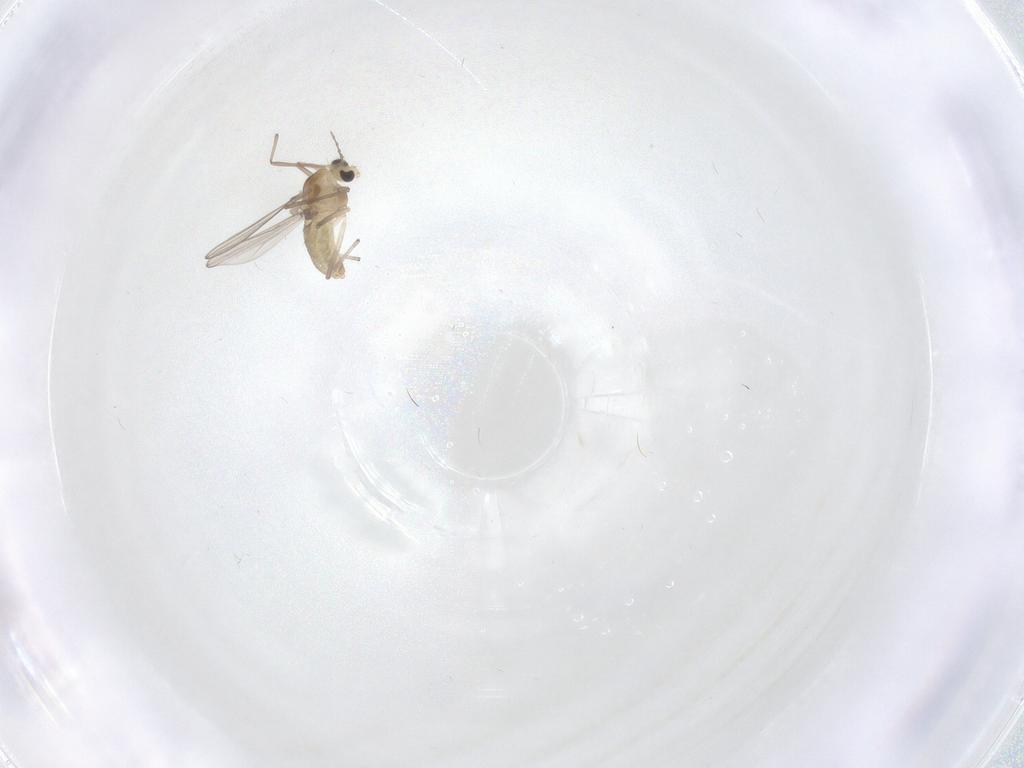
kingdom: Animalia
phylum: Arthropoda
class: Insecta
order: Diptera
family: Chironomidae
